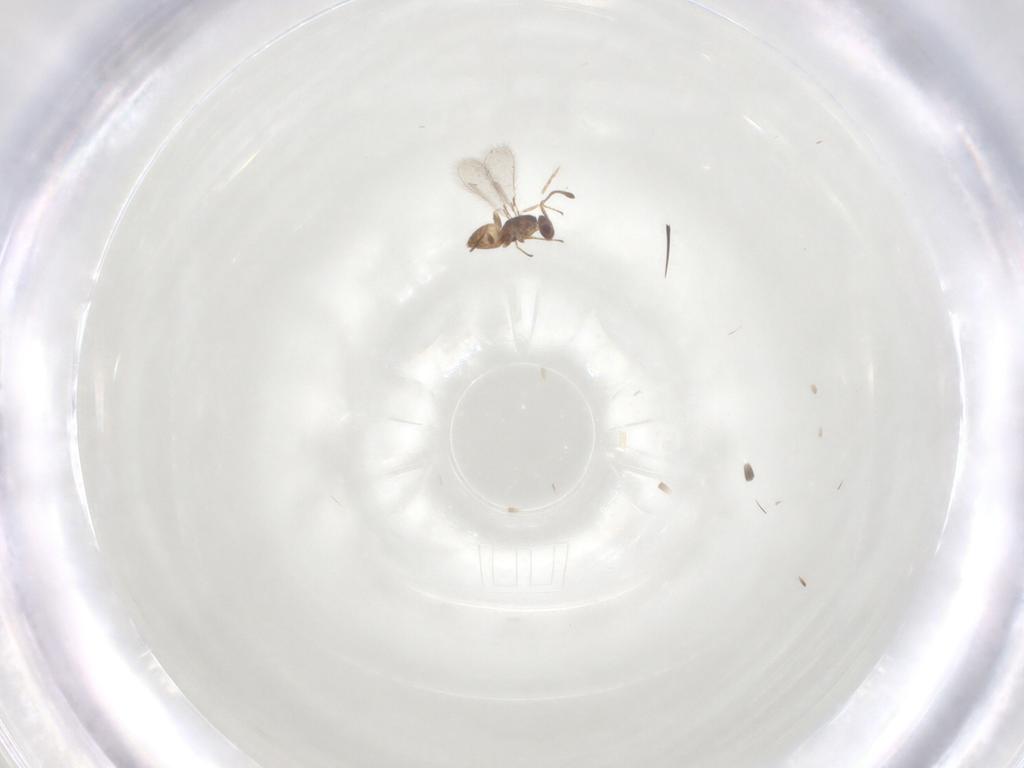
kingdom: Animalia
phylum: Arthropoda
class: Insecta
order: Hymenoptera
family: Mymaridae
